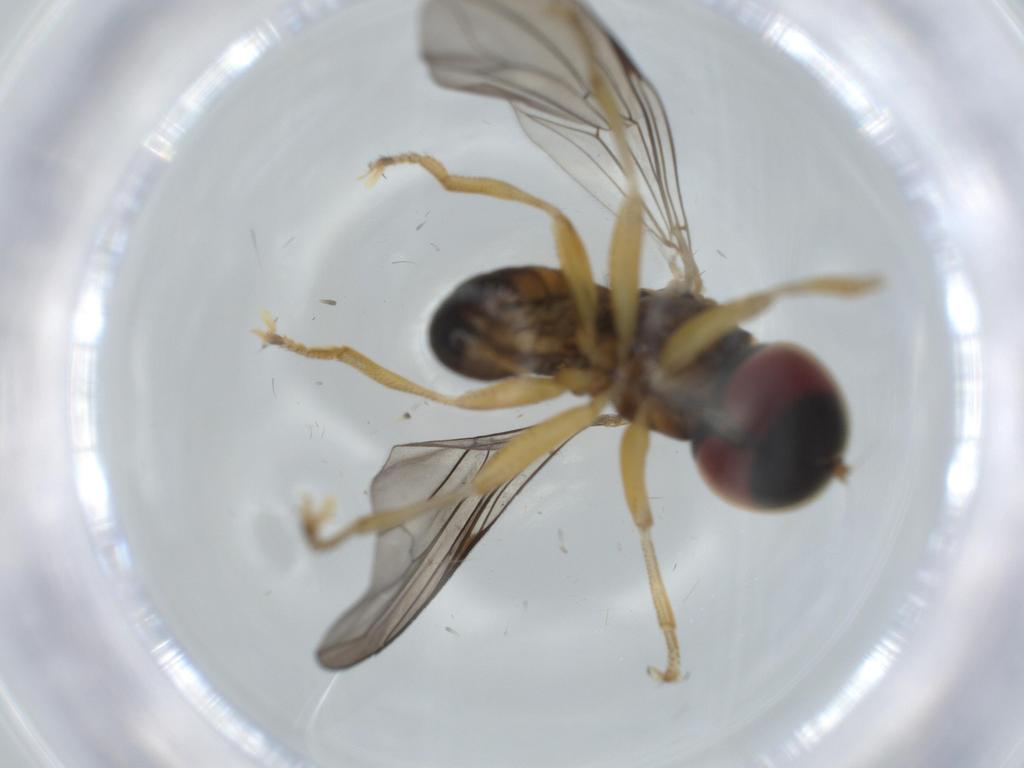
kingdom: Animalia
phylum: Arthropoda
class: Insecta
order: Diptera
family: Pipunculidae
